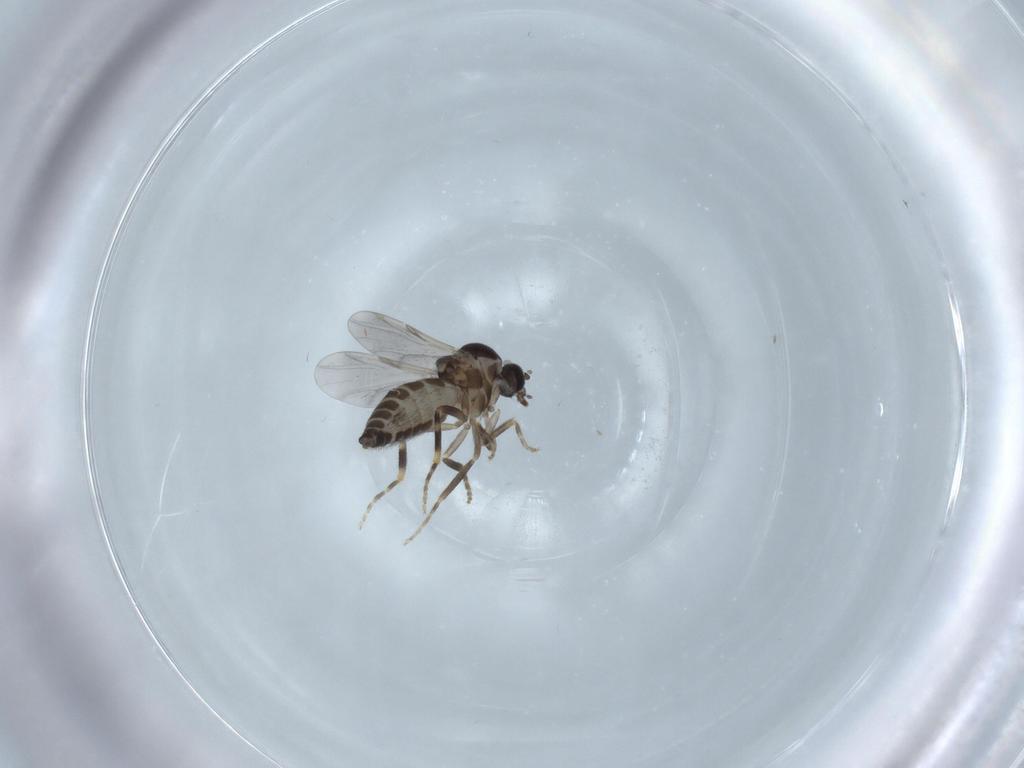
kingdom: Animalia
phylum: Arthropoda
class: Insecta
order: Diptera
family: Ceratopogonidae
